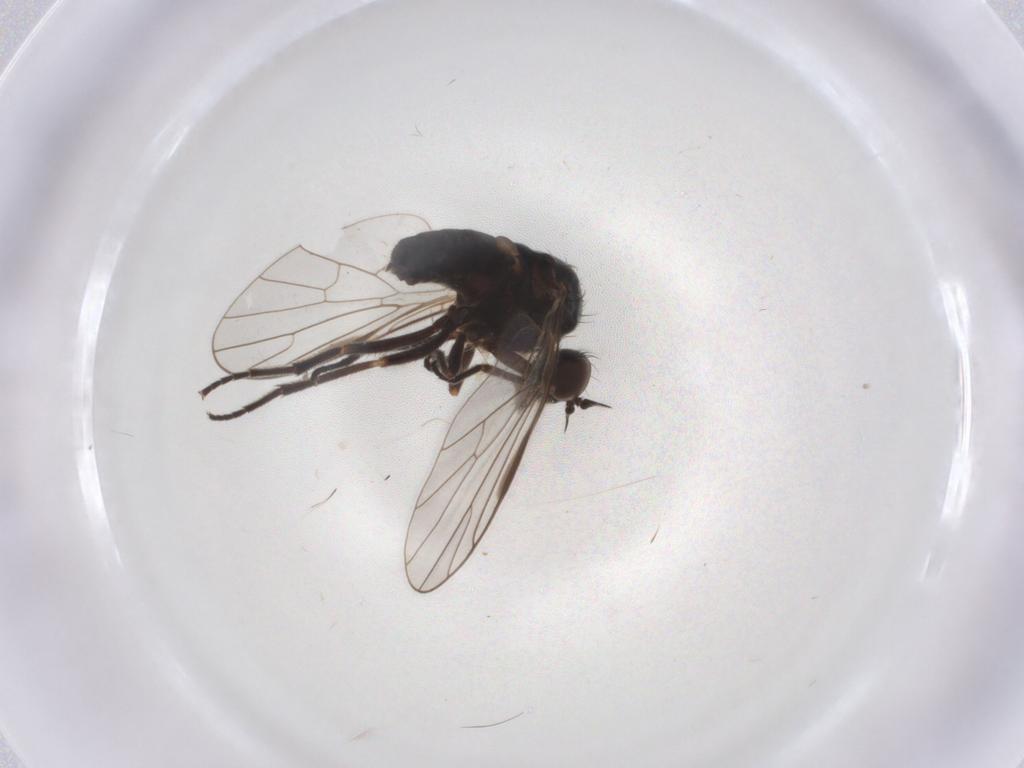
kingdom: Animalia
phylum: Arthropoda
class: Insecta
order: Diptera
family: Empididae
